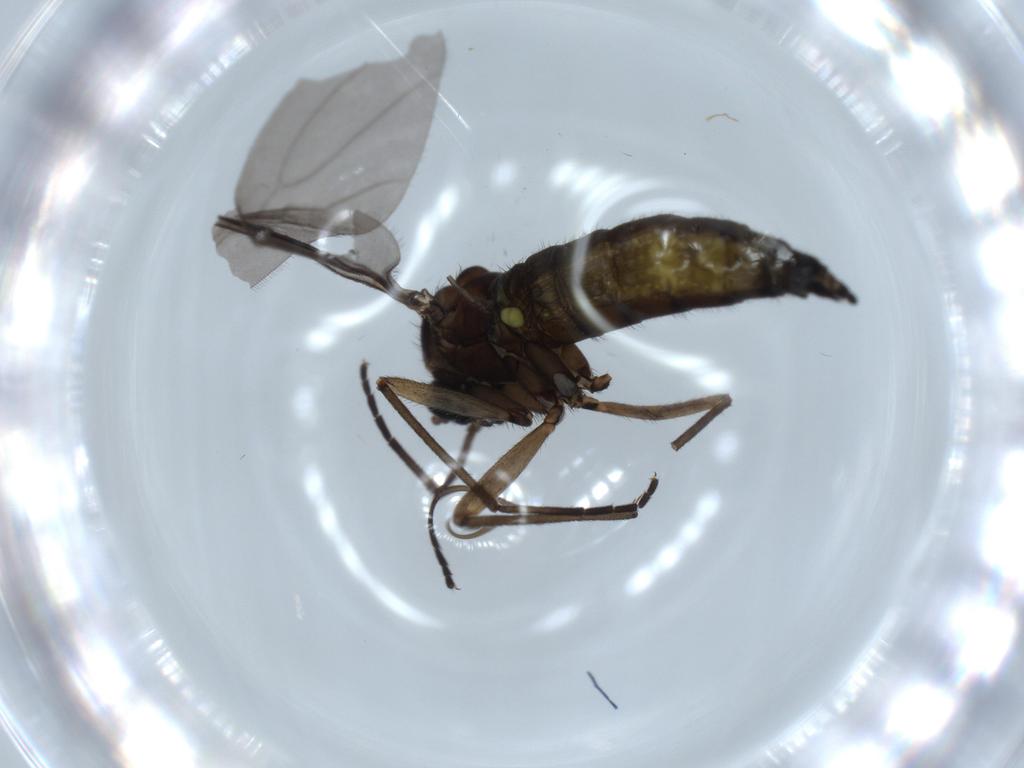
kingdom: Animalia
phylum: Arthropoda
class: Insecta
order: Diptera
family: Sciaridae
